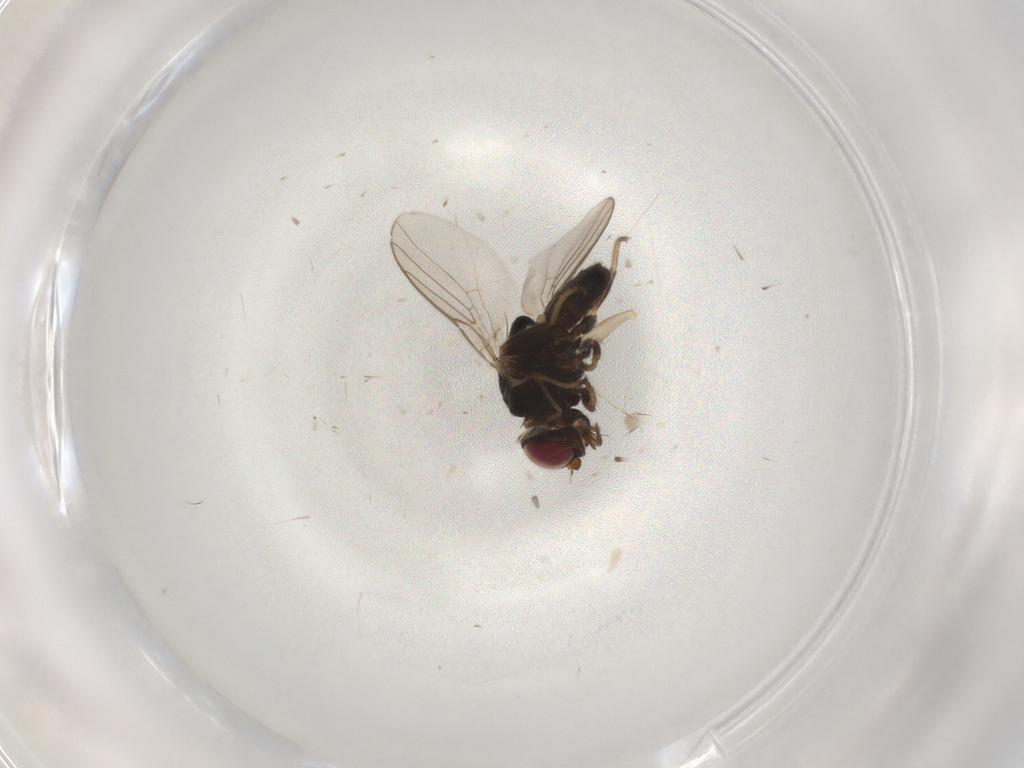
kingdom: Animalia
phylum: Arthropoda
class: Insecta
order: Diptera
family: Chloropidae
